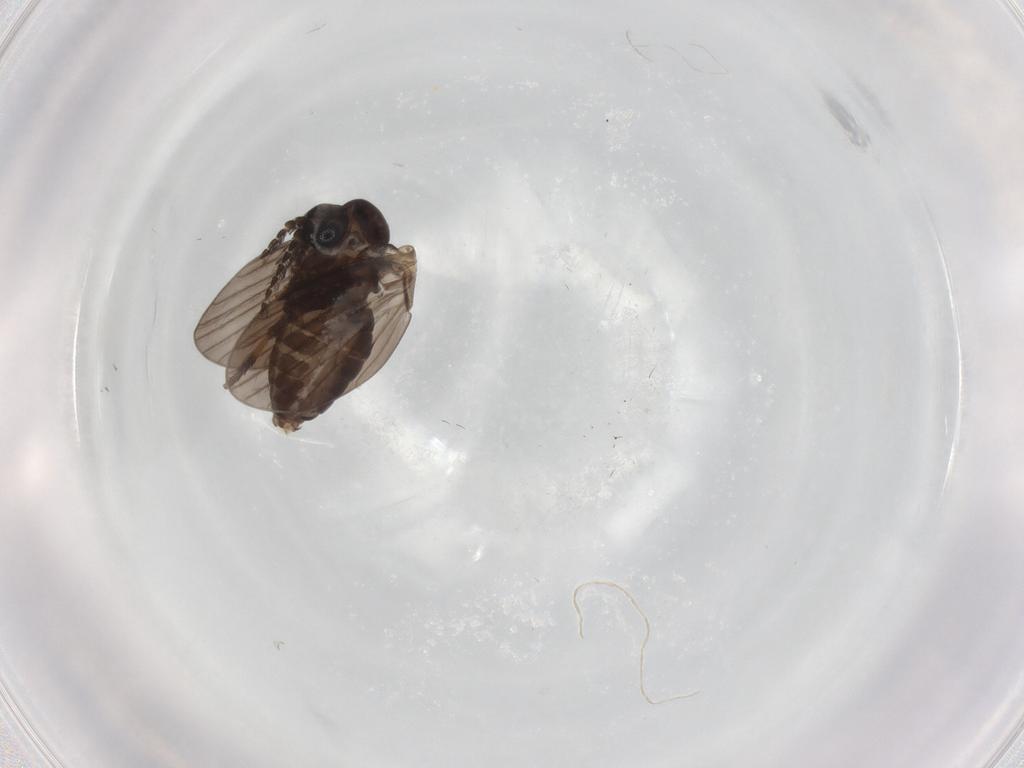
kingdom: Animalia
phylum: Arthropoda
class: Insecta
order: Diptera
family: Psychodidae
